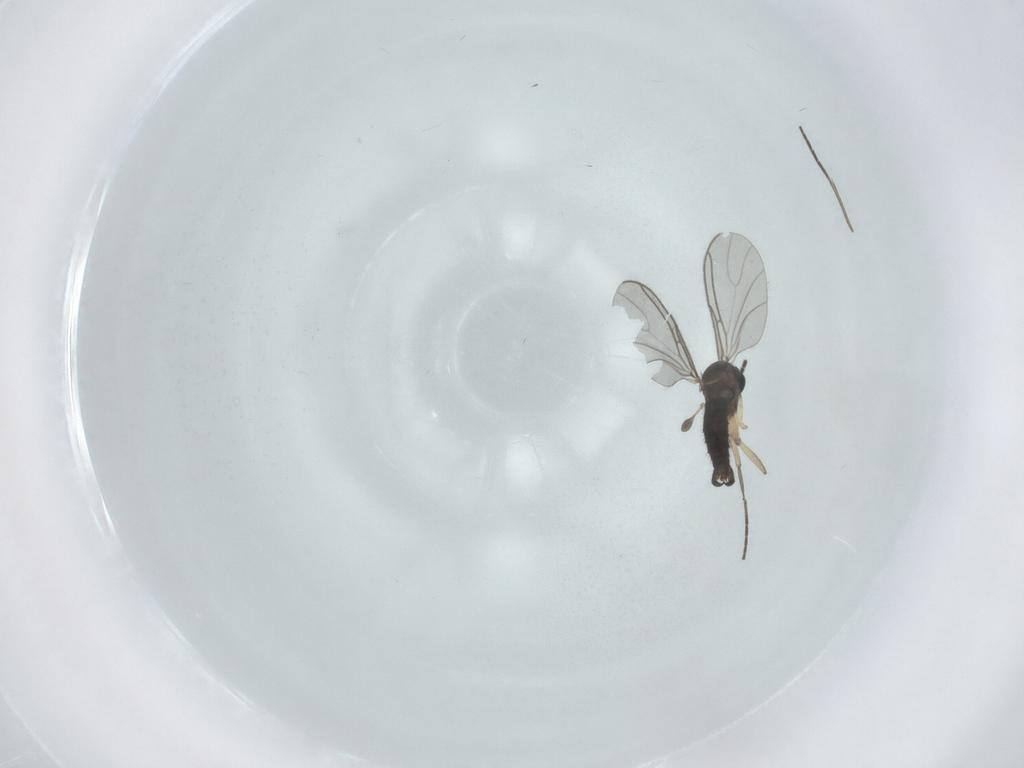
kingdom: Animalia
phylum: Arthropoda
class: Insecta
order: Diptera
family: Sciaridae
